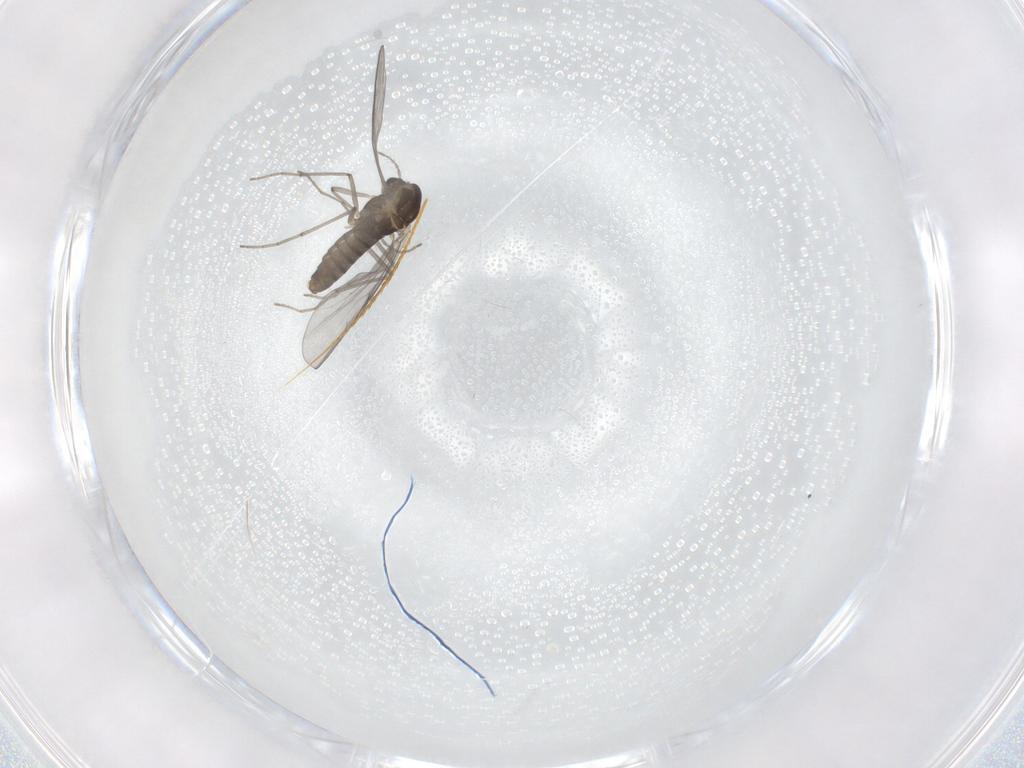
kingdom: Animalia
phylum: Arthropoda
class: Insecta
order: Diptera
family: Chironomidae
